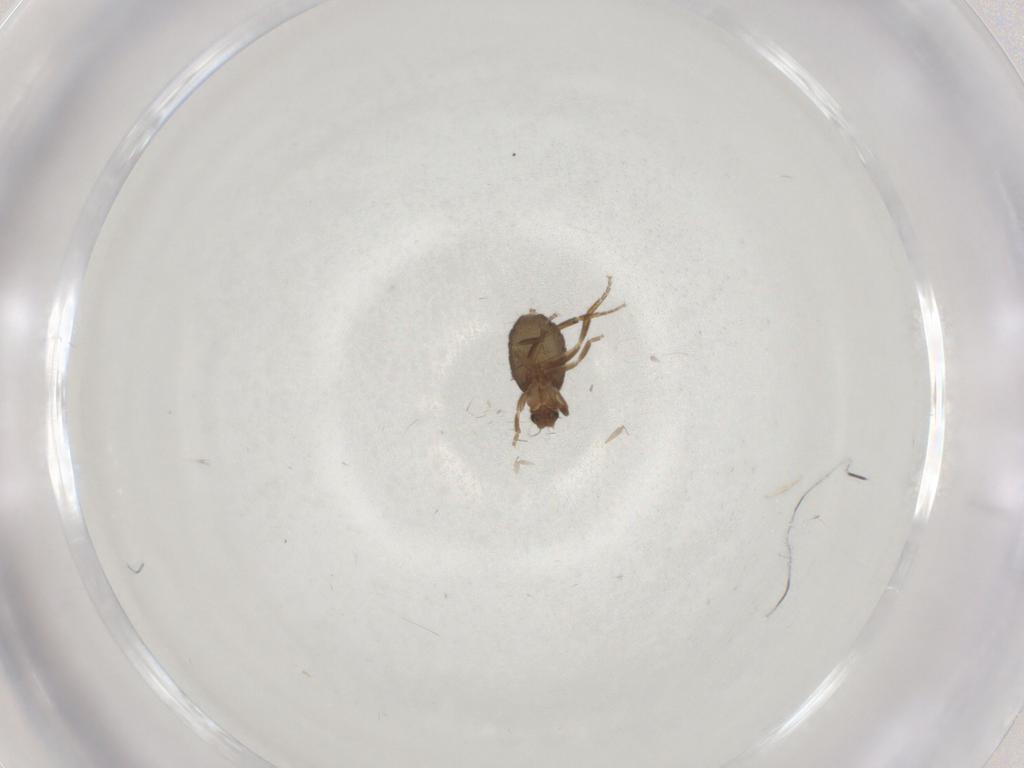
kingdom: Animalia
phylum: Arthropoda
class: Insecta
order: Diptera
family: Phoridae
